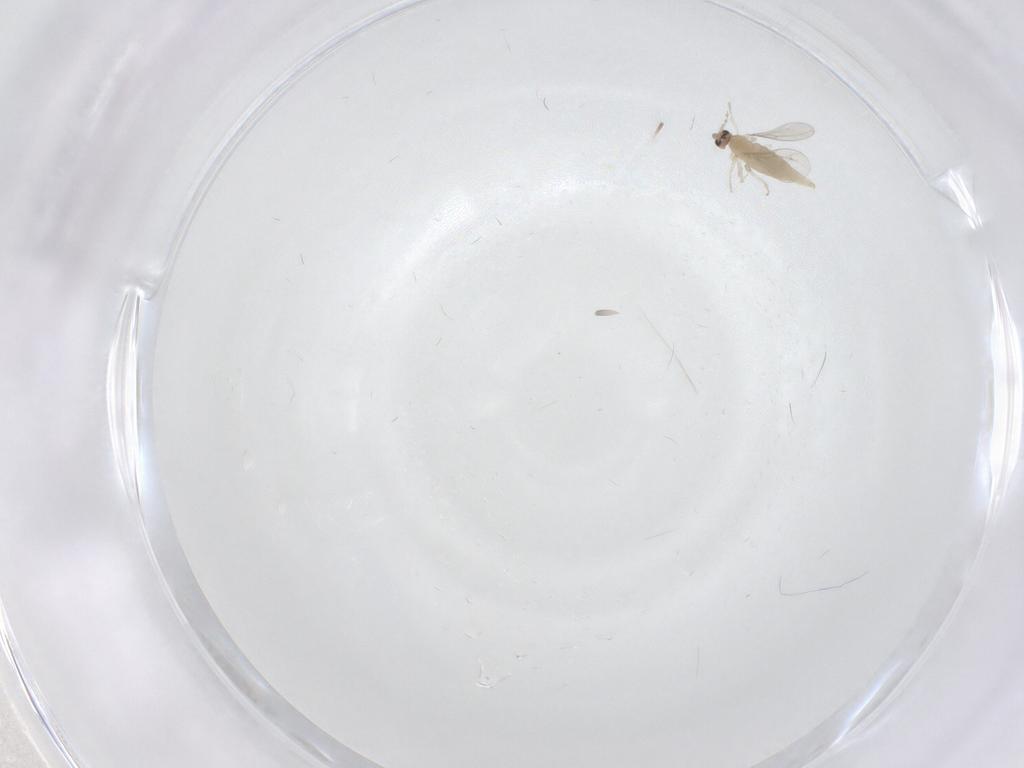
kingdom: Animalia
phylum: Arthropoda
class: Insecta
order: Diptera
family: Cecidomyiidae
